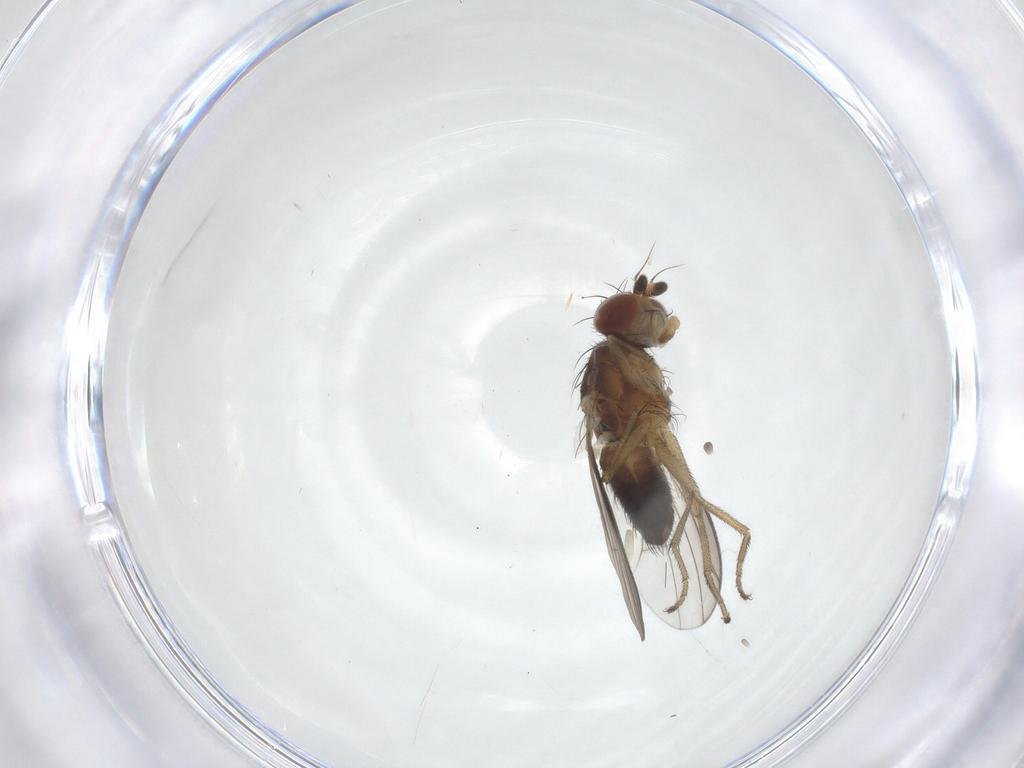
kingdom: Animalia
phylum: Arthropoda
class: Insecta
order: Diptera
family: Heleomyzidae
